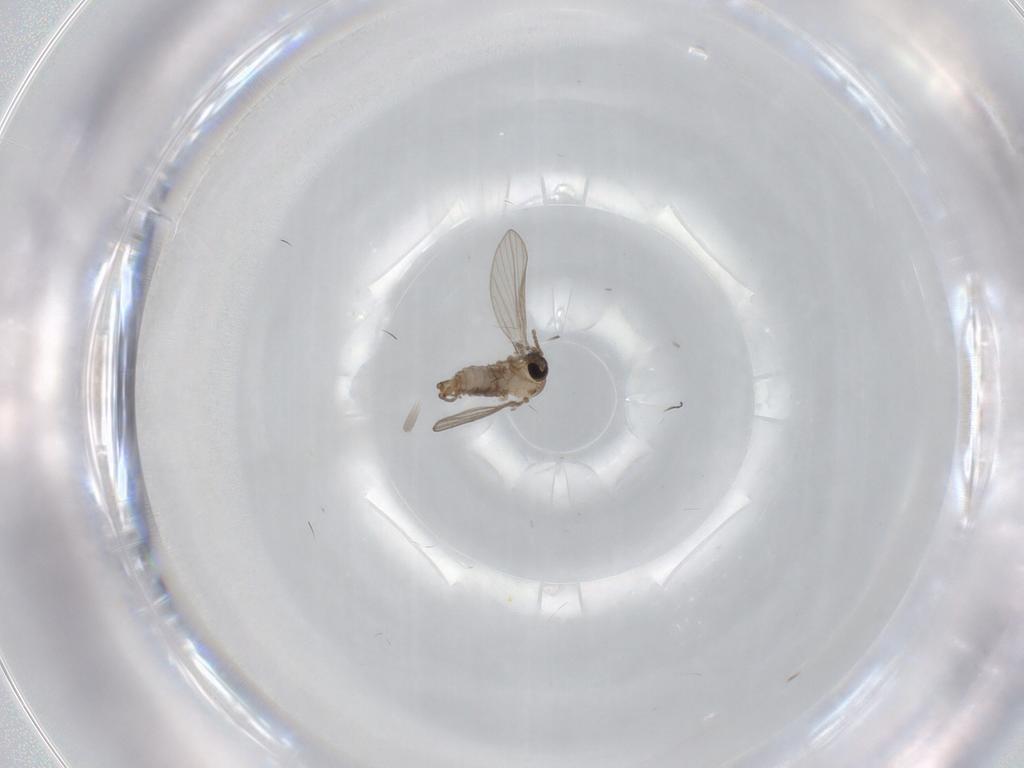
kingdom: Animalia
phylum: Arthropoda
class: Insecta
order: Diptera
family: Psychodidae
